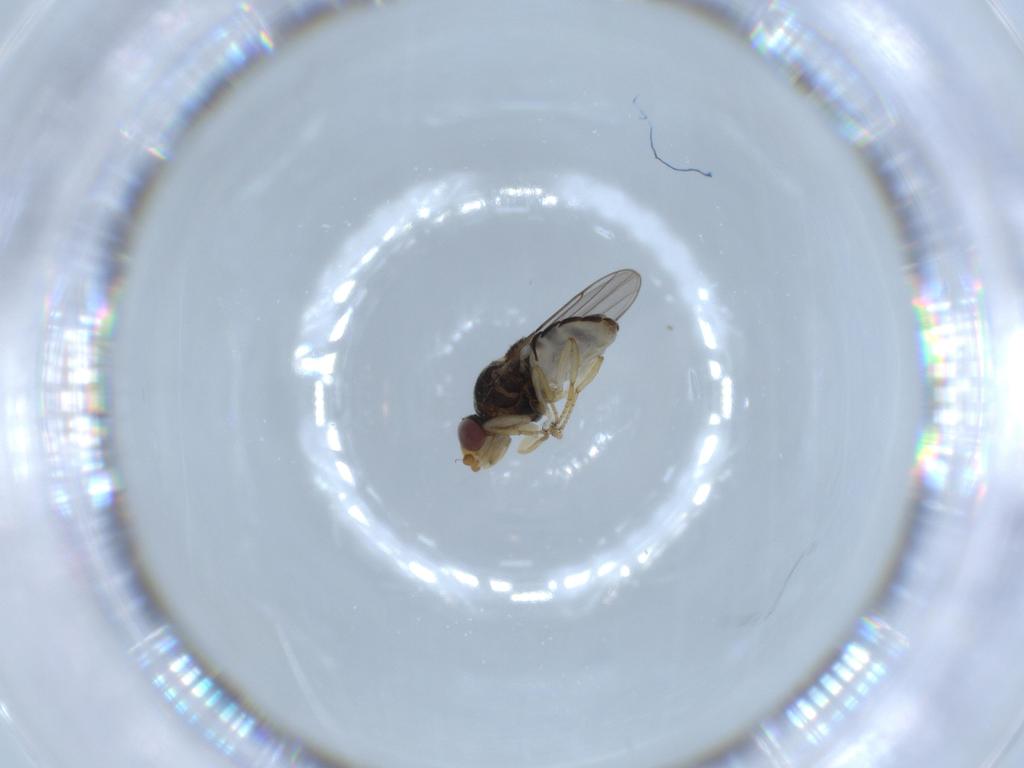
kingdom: Animalia
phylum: Arthropoda
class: Insecta
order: Diptera
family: Chloropidae
